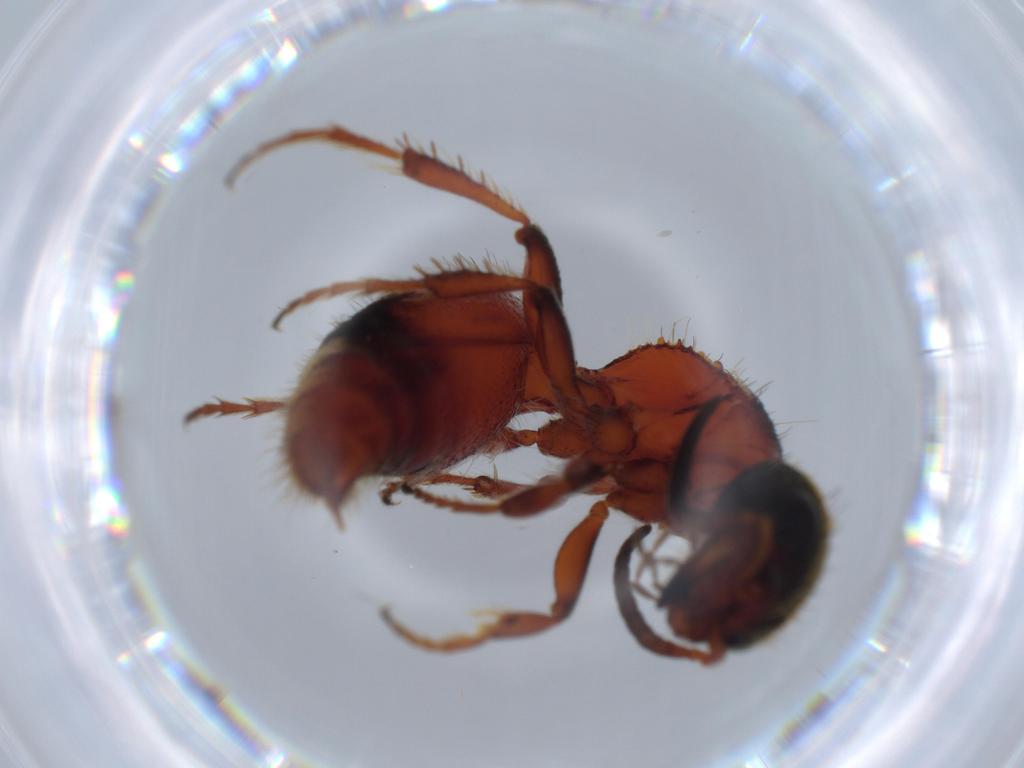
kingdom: Animalia
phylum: Arthropoda
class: Insecta
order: Hymenoptera
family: Mutillidae
